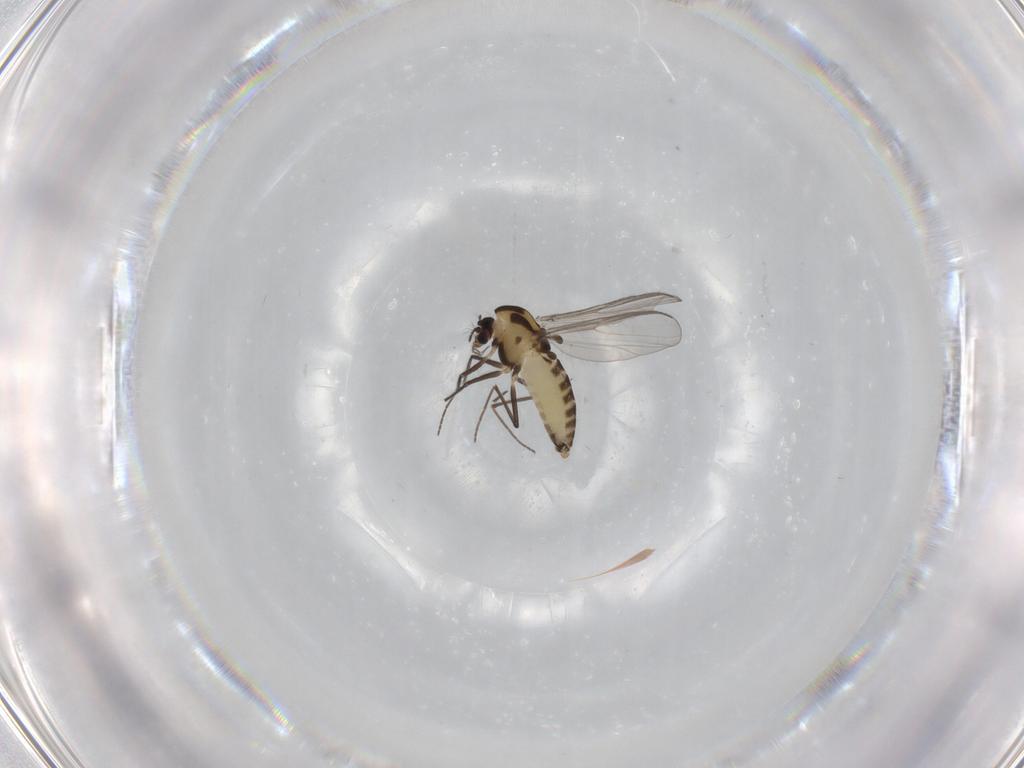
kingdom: Animalia
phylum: Arthropoda
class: Insecta
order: Diptera
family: Chironomidae
